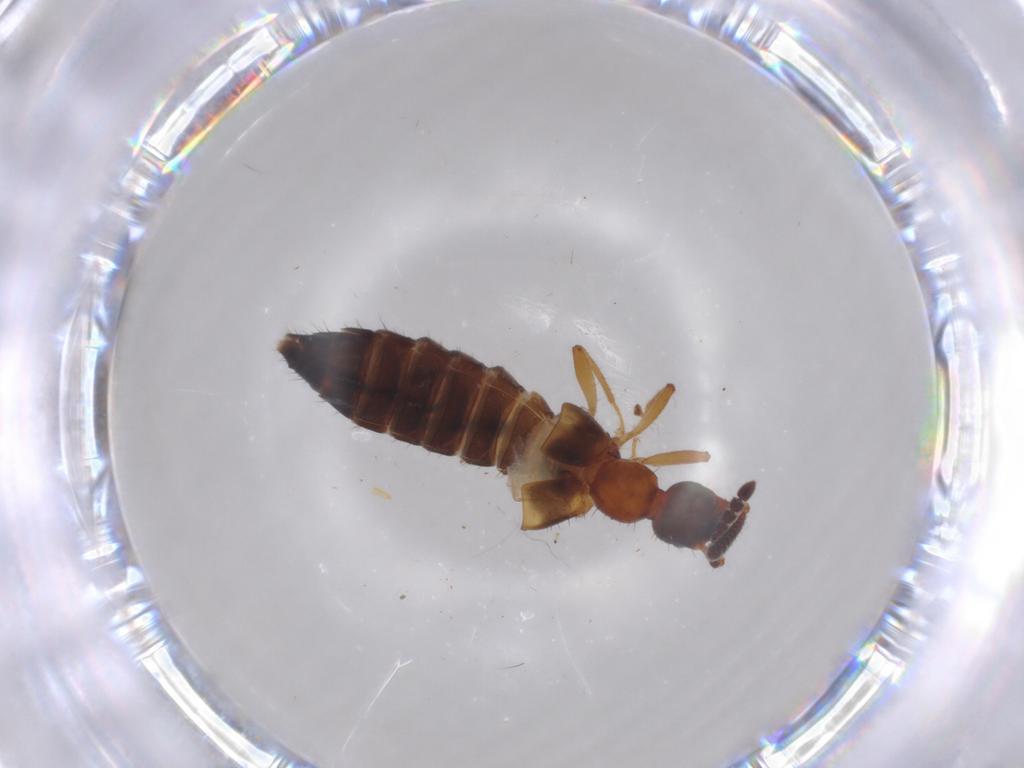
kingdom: Animalia
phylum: Arthropoda
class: Insecta
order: Coleoptera
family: Staphylinidae
